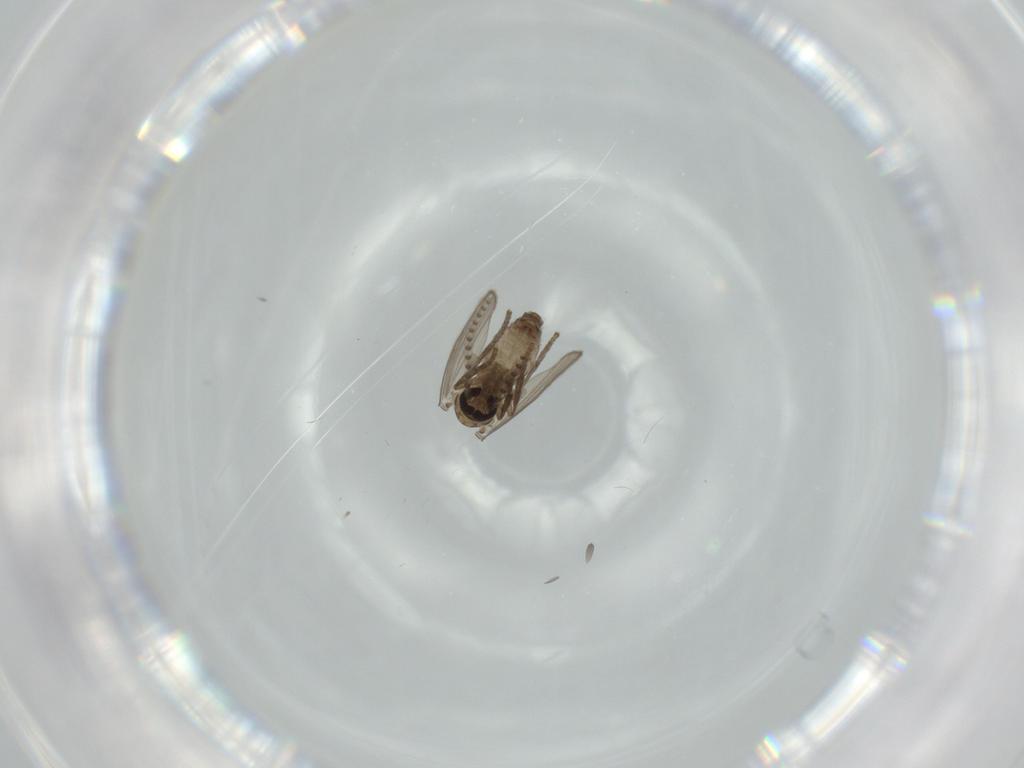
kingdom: Animalia
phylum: Arthropoda
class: Insecta
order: Diptera
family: Psychodidae
